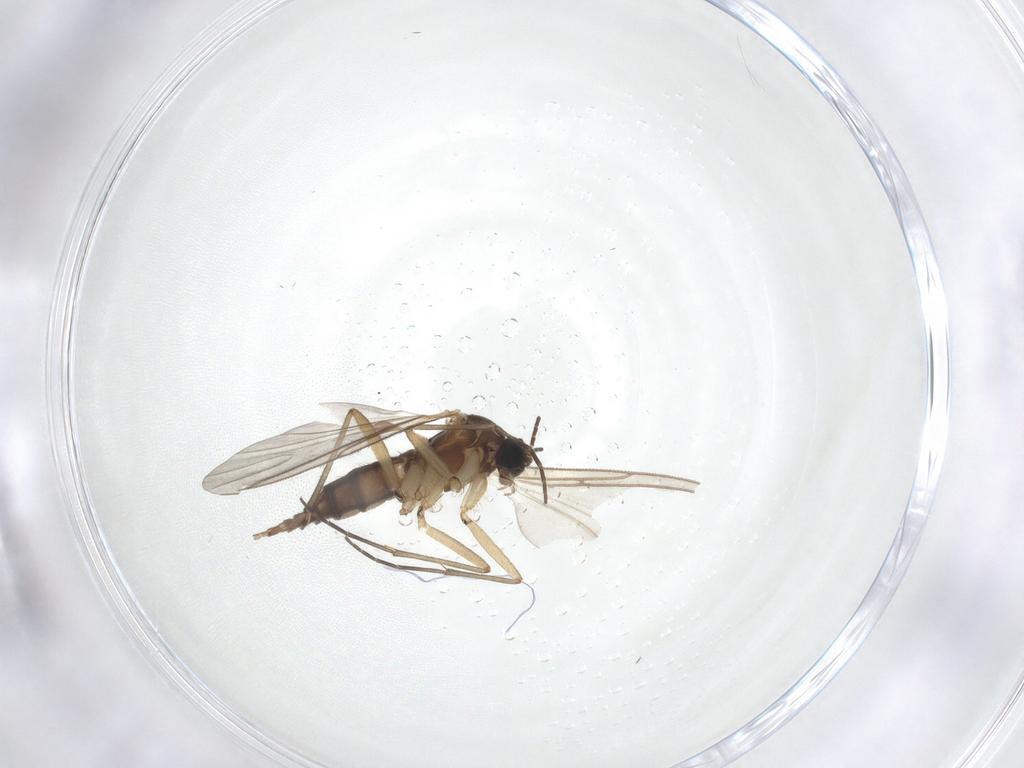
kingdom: Animalia
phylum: Arthropoda
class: Insecta
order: Diptera
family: Sciaridae
